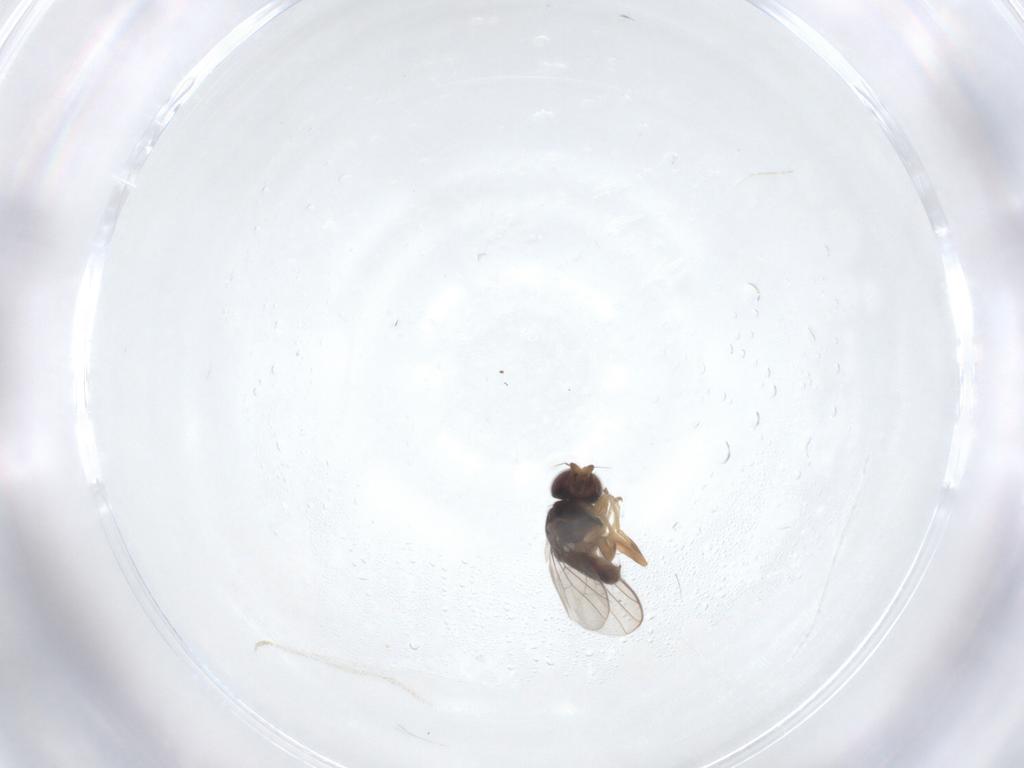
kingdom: Animalia
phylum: Arthropoda
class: Insecta
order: Diptera
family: Chloropidae
